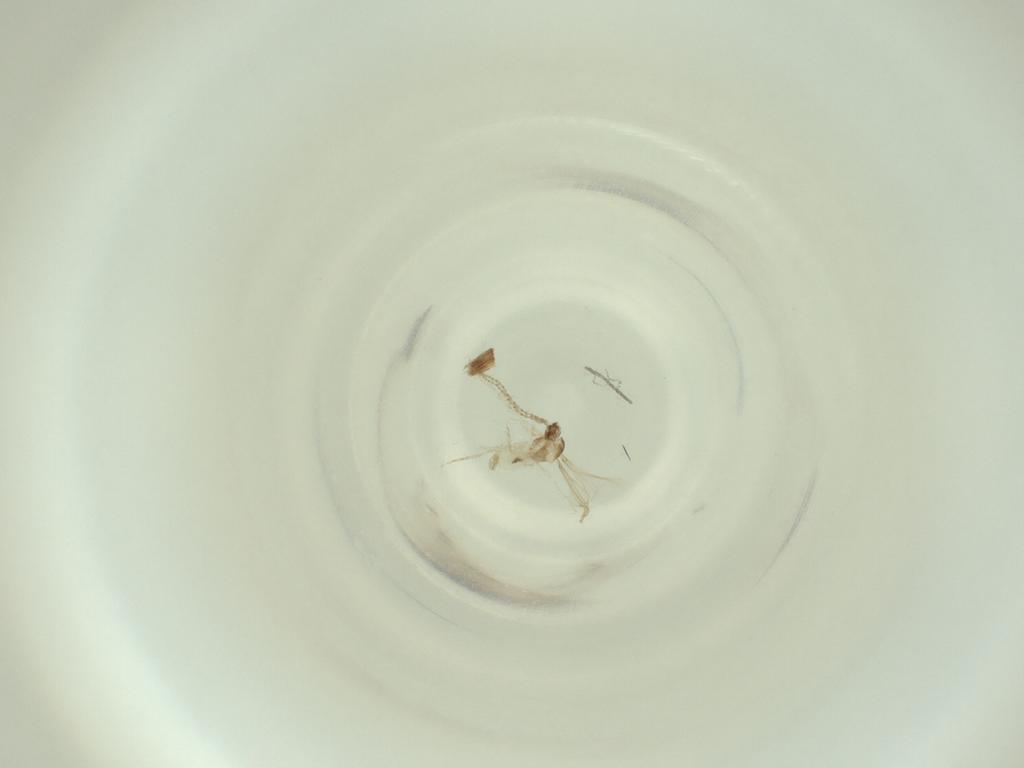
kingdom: Animalia
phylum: Arthropoda
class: Insecta
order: Diptera
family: Cecidomyiidae
